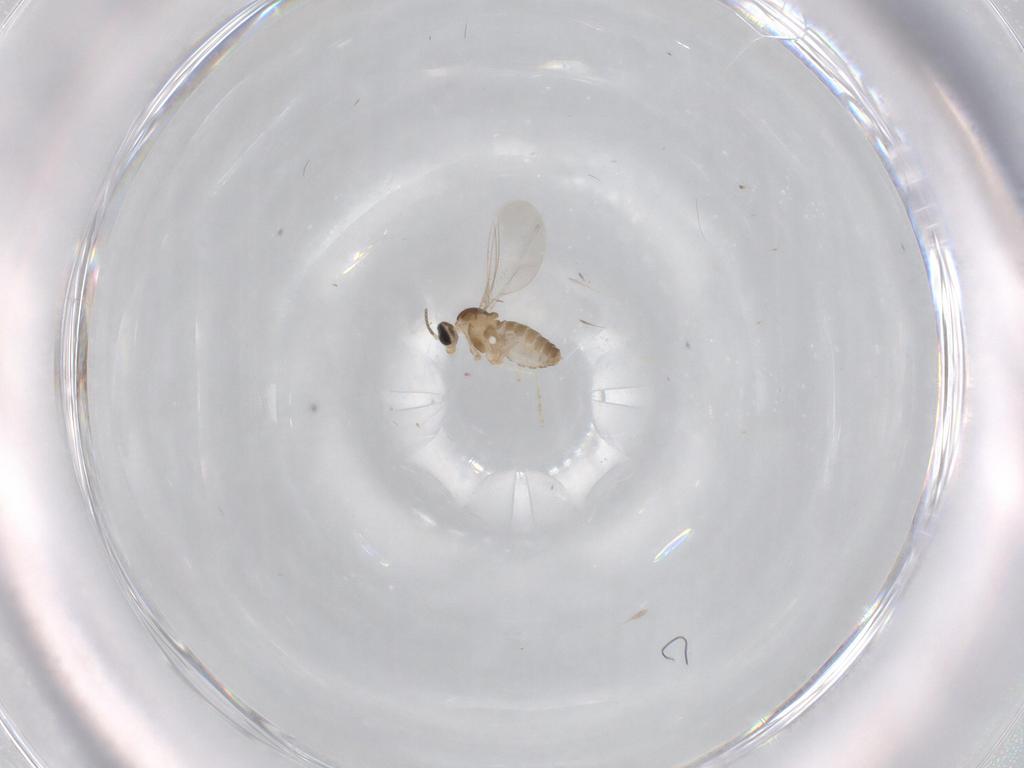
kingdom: Animalia
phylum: Arthropoda
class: Insecta
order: Diptera
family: Cecidomyiidae
